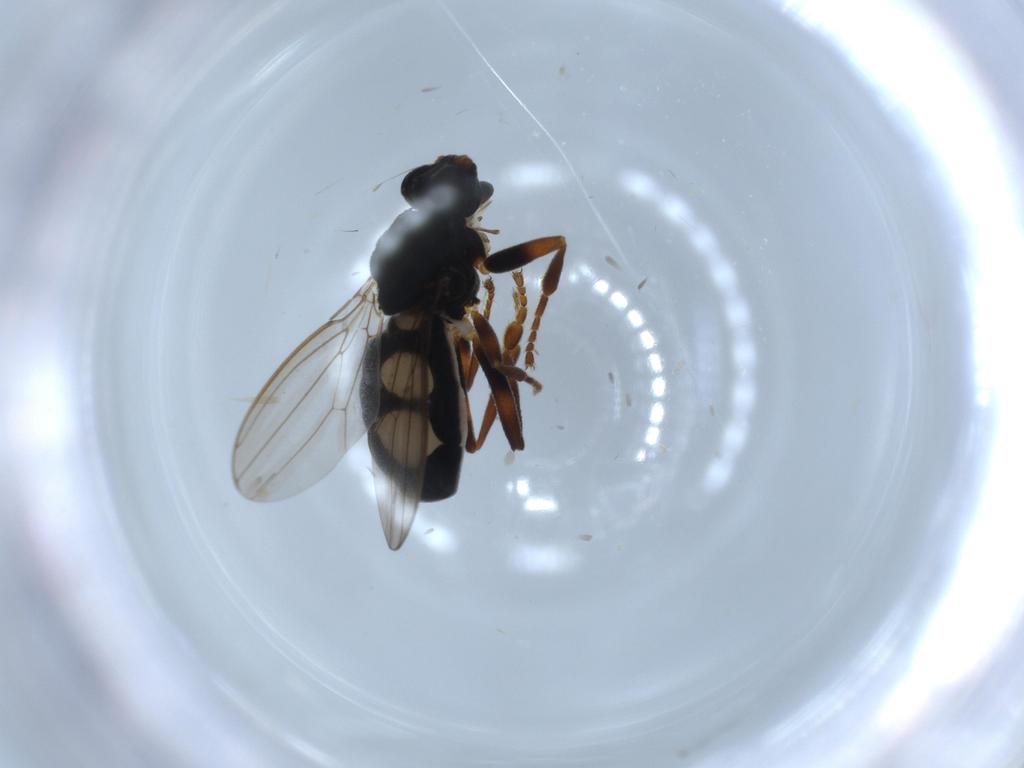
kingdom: Animalia
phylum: Arthropoda
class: Insecta
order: Diptera
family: Sphaeroceridae
